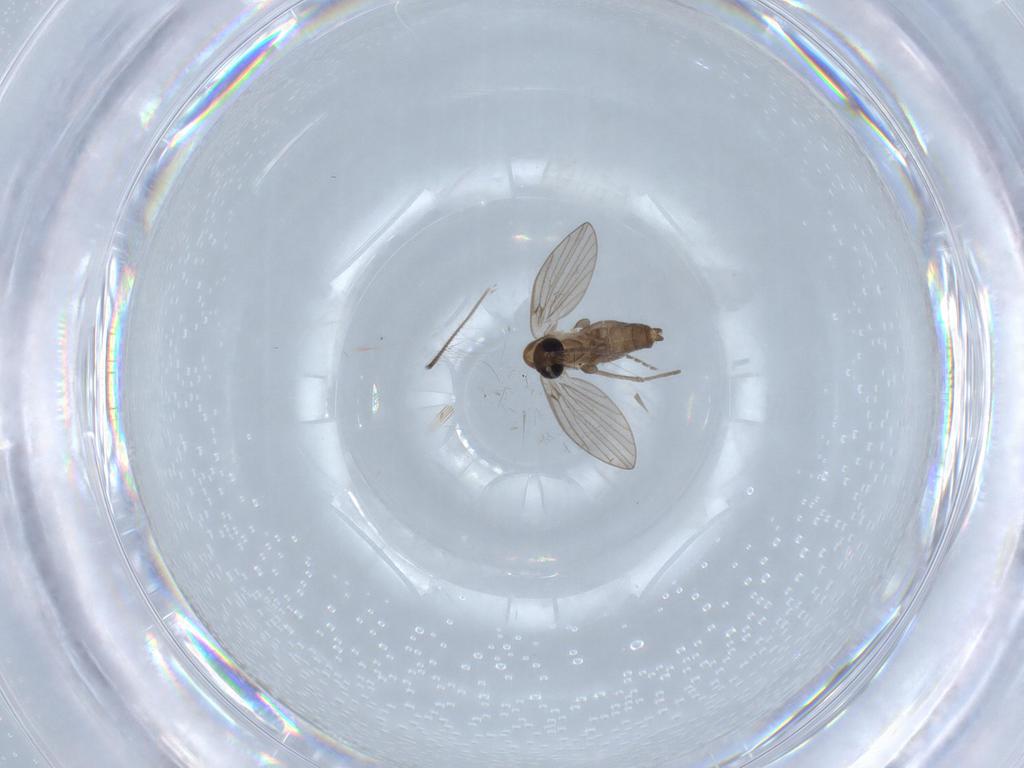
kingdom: Animalia
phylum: Arthropoda
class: Insecta
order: Diptera
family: Psychodidae
